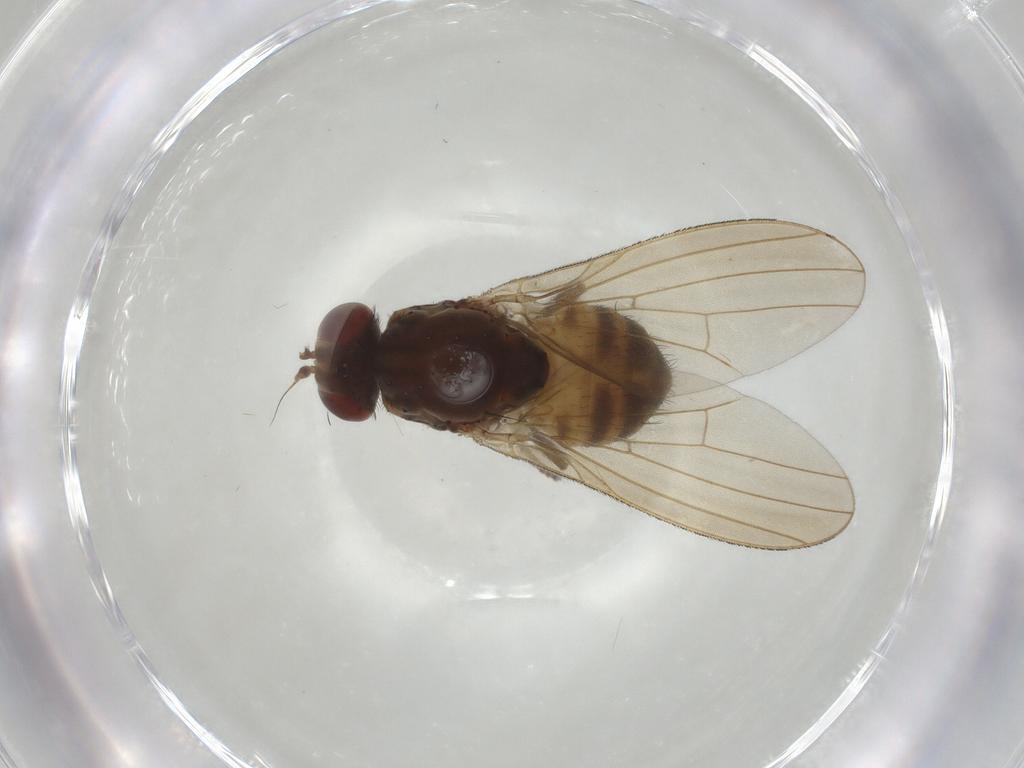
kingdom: Animalia
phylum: Arthropoda
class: Insecta
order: Diptera
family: Lauxaniidae
